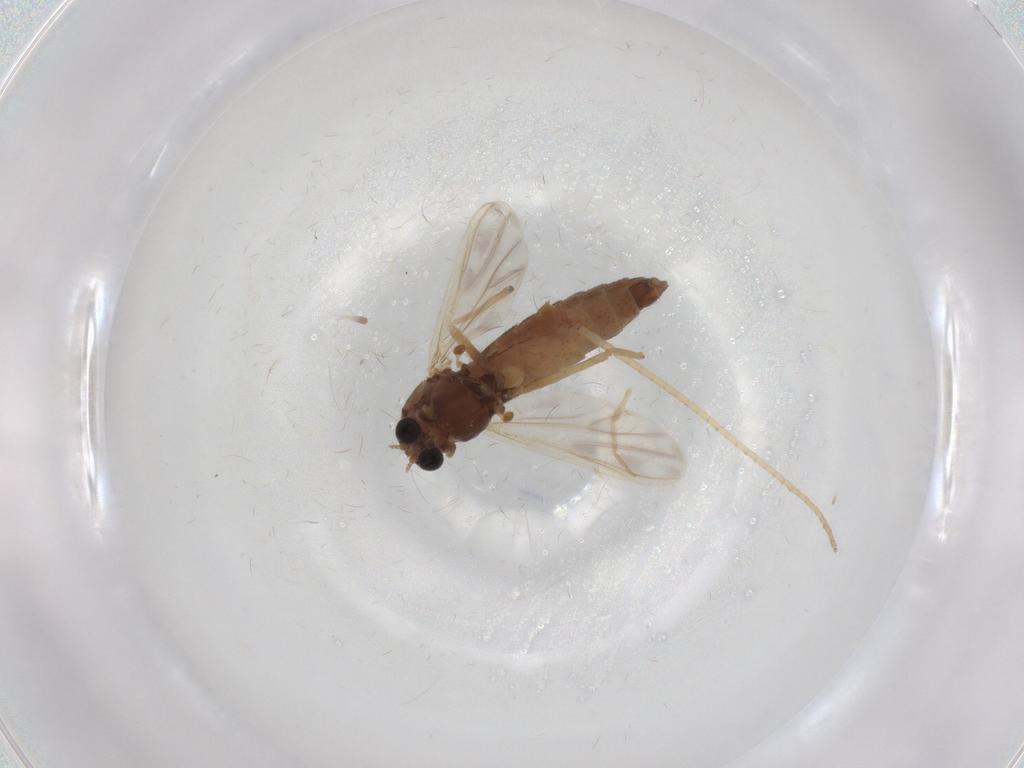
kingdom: Animalia
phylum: Arthropoda
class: Insecta
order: Diptera
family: Chironomidae
